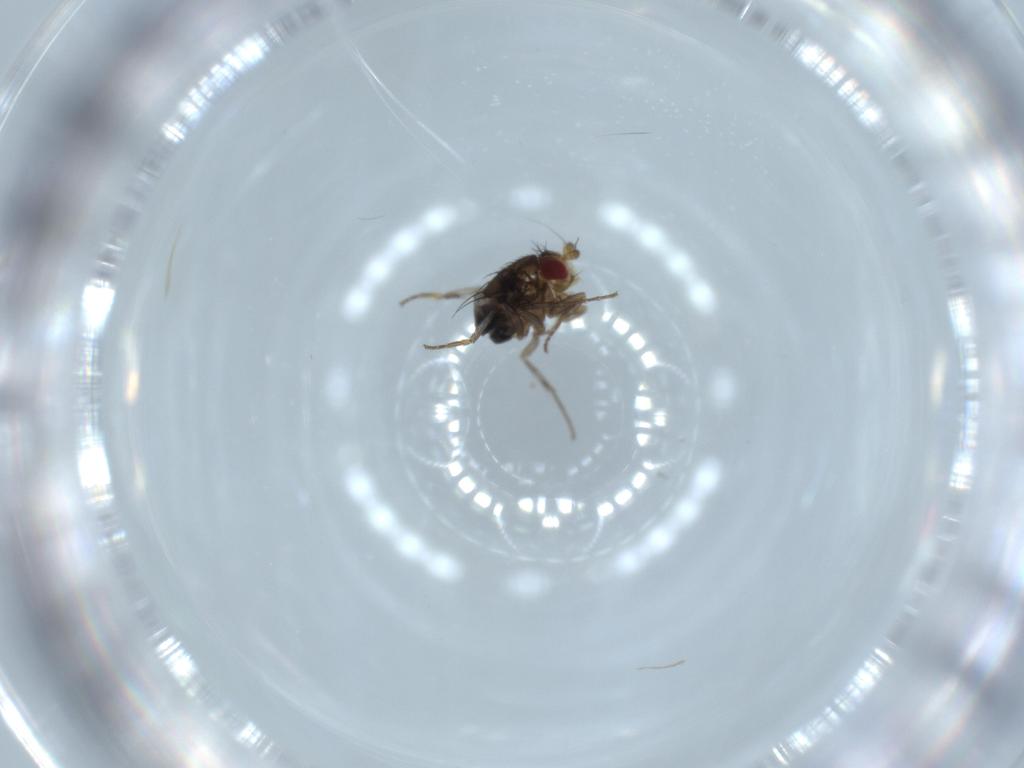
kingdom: Animalia
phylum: Arthropoda
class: Insecta
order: Diptera
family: Sphaeroceridae
